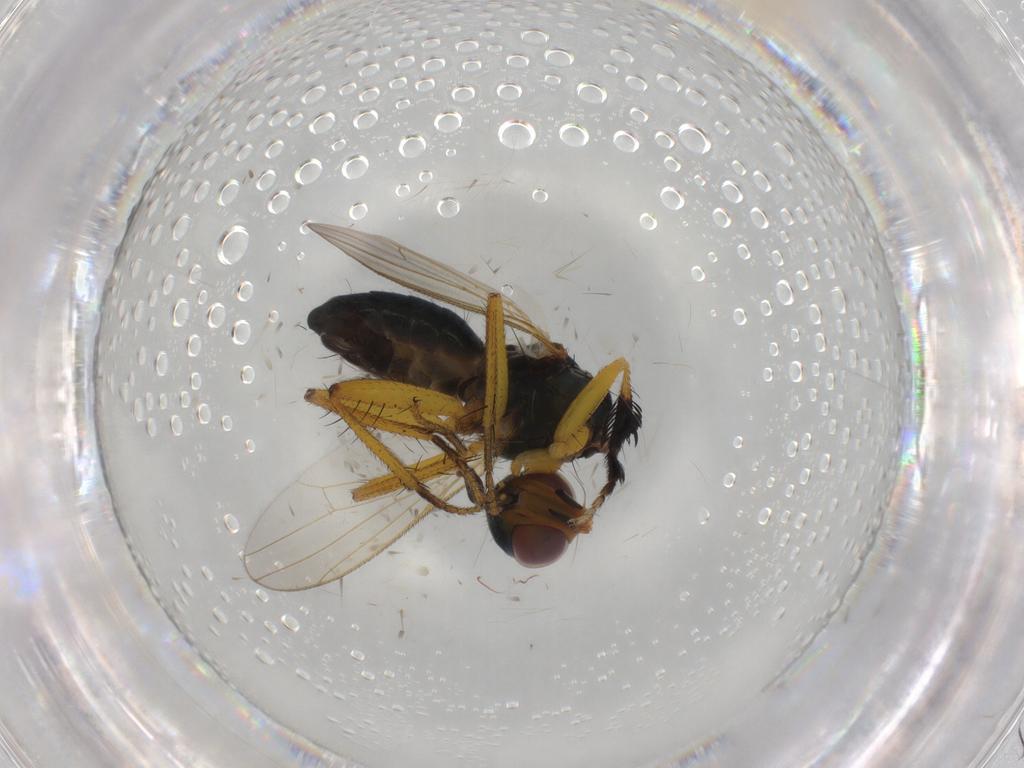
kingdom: Animalia
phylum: Arthropoda
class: Insecta
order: Diptera
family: Muscidae
